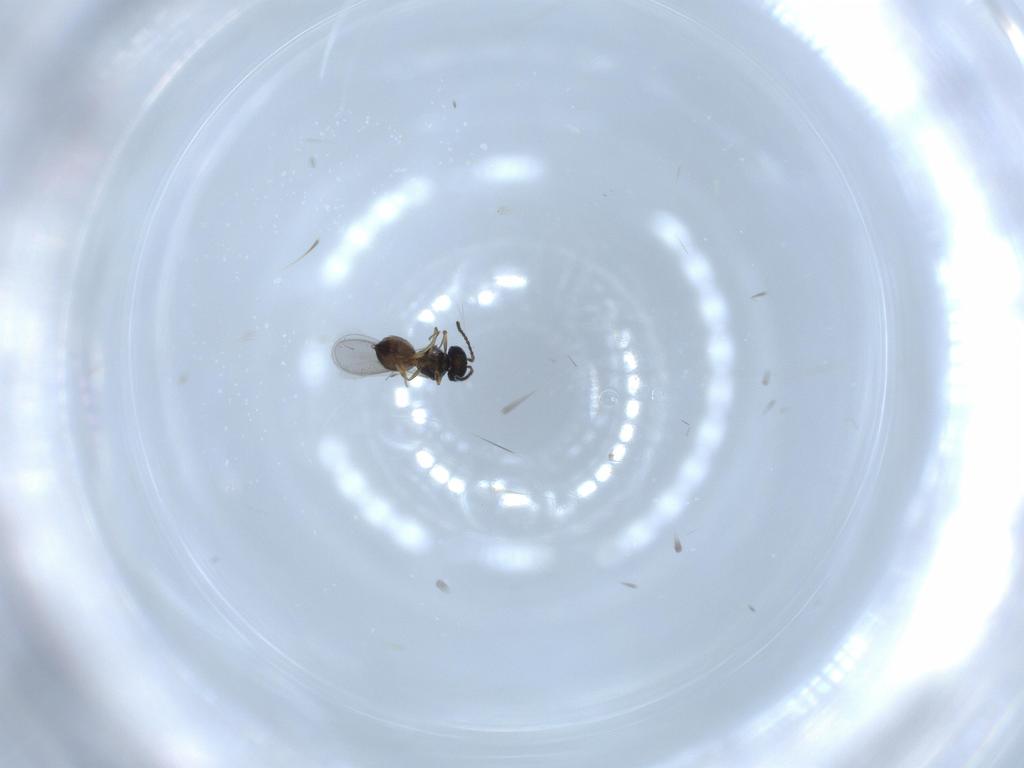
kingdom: Animalia
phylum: Arthropoda
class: Insecta
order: Hymenoptera
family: Scelionidae
